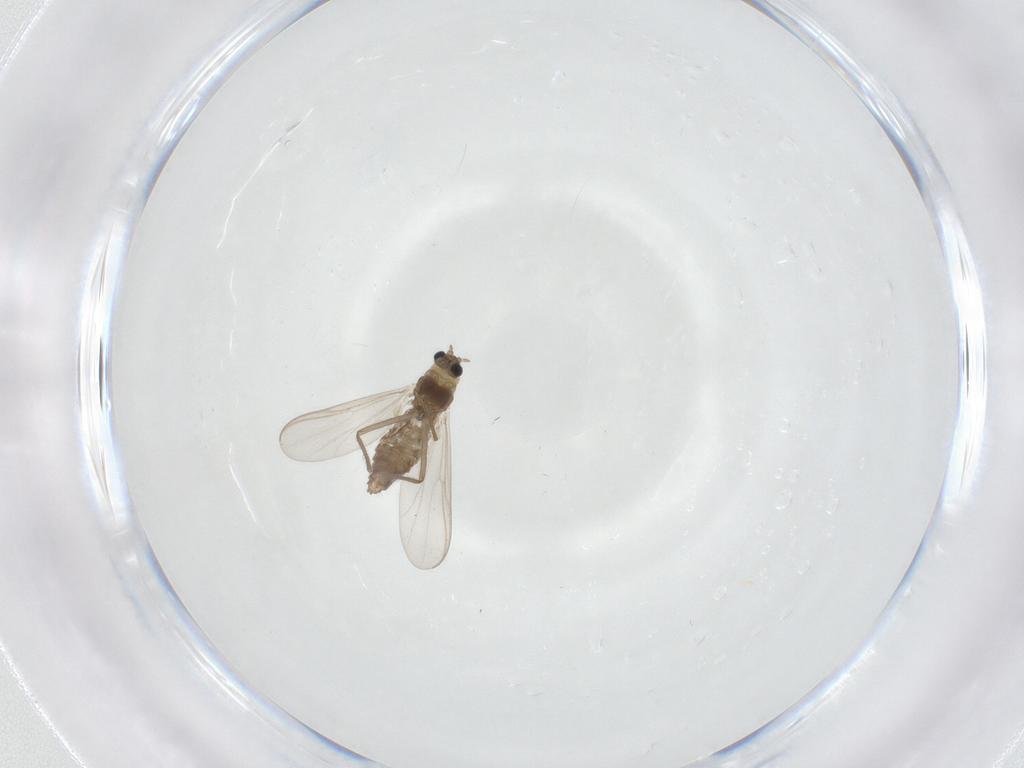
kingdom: Animalia
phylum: Arthropoda
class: Insecta
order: Diptera
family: Chironomidae
